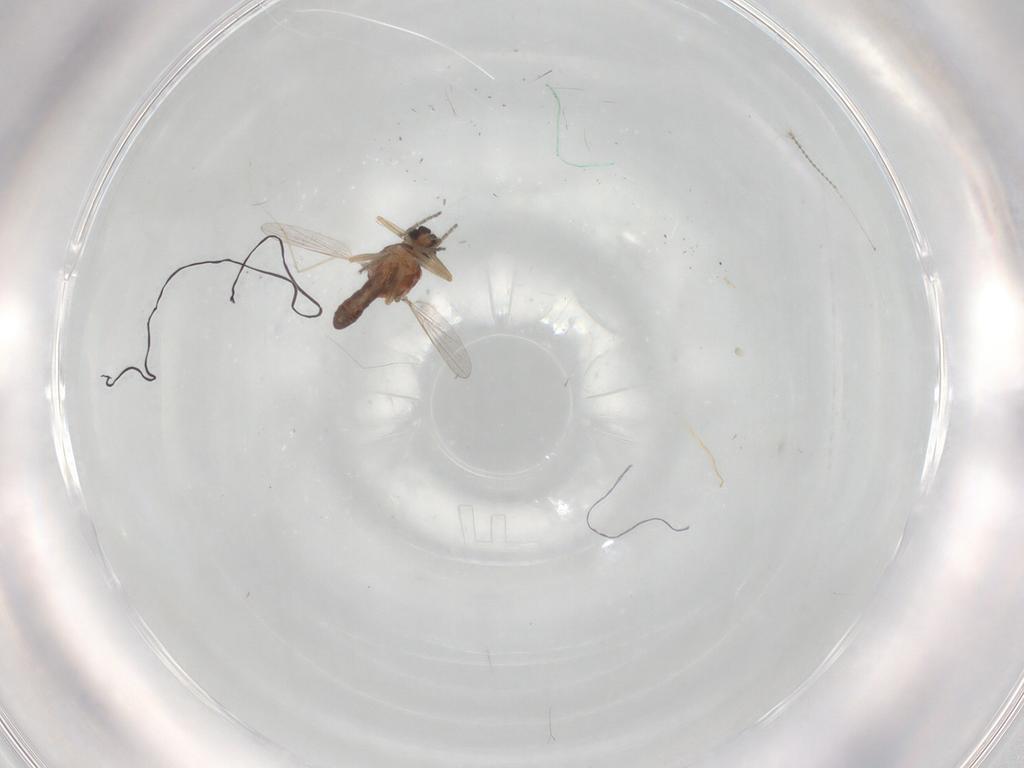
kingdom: Animalia
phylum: Arthropoda
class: Insecta
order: Diptera
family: Ceratopogonidae
